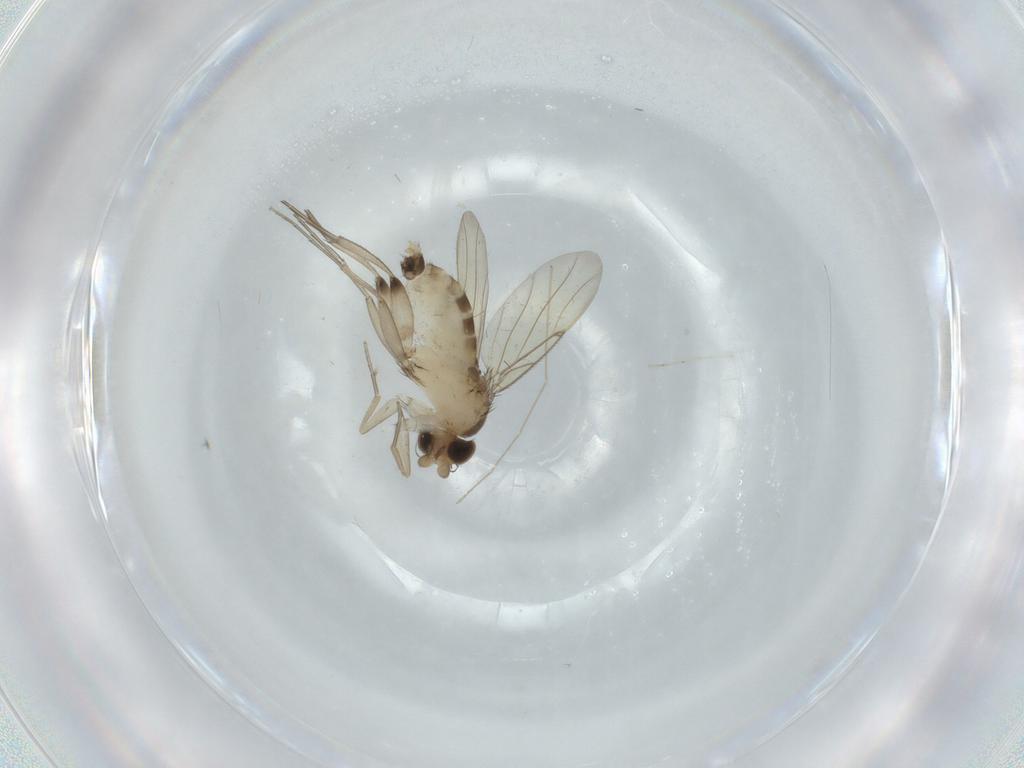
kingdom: Animalia
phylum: Arthropoda
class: Insecta
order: Diptera
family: Phoridae
